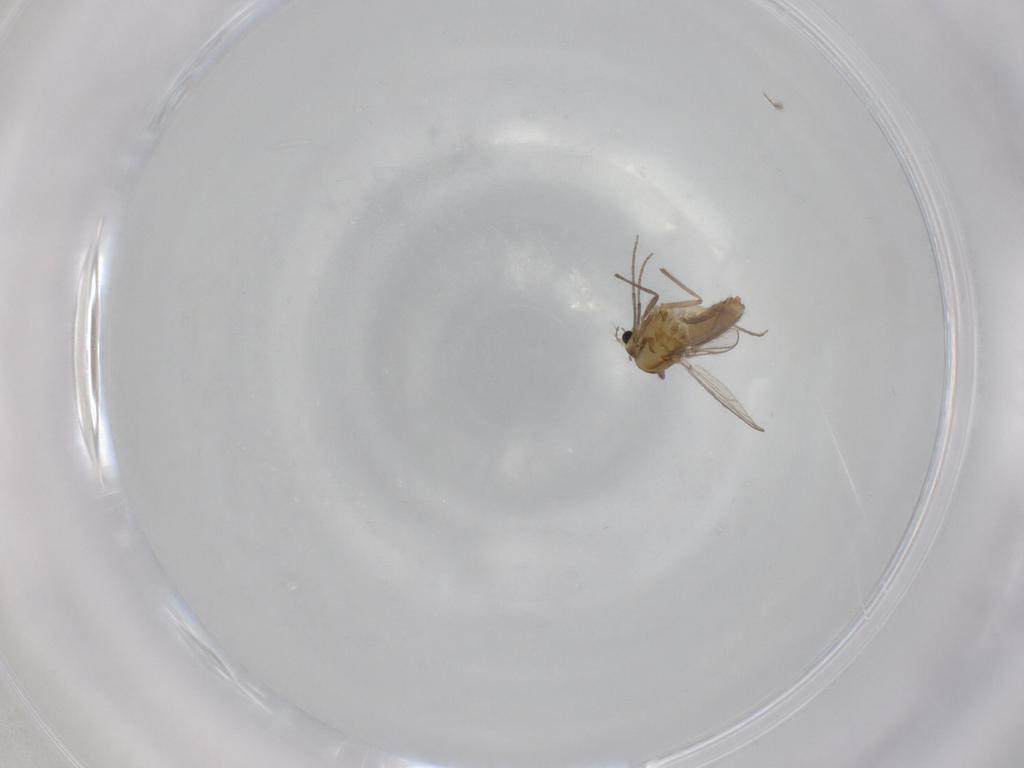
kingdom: Animalia
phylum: Arthropoda
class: Insecta
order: Diptera
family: Chironomidae
